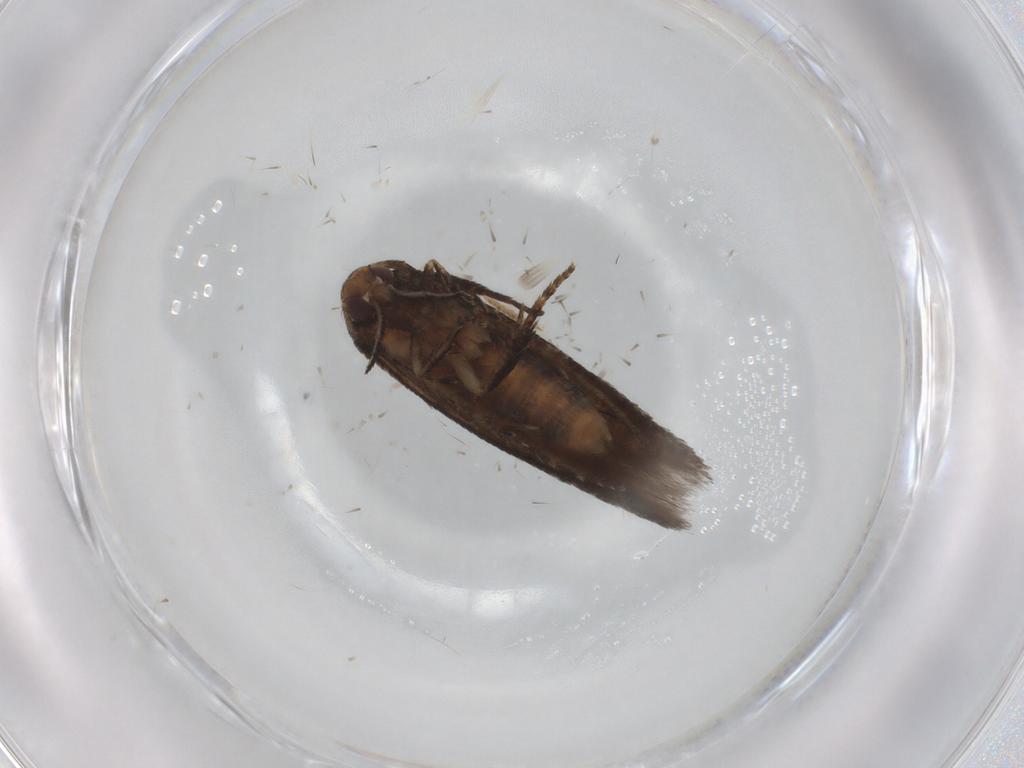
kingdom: Animalia
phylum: Arthropoda
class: Insecta
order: Lepidoptera
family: Cosmopterigidae
